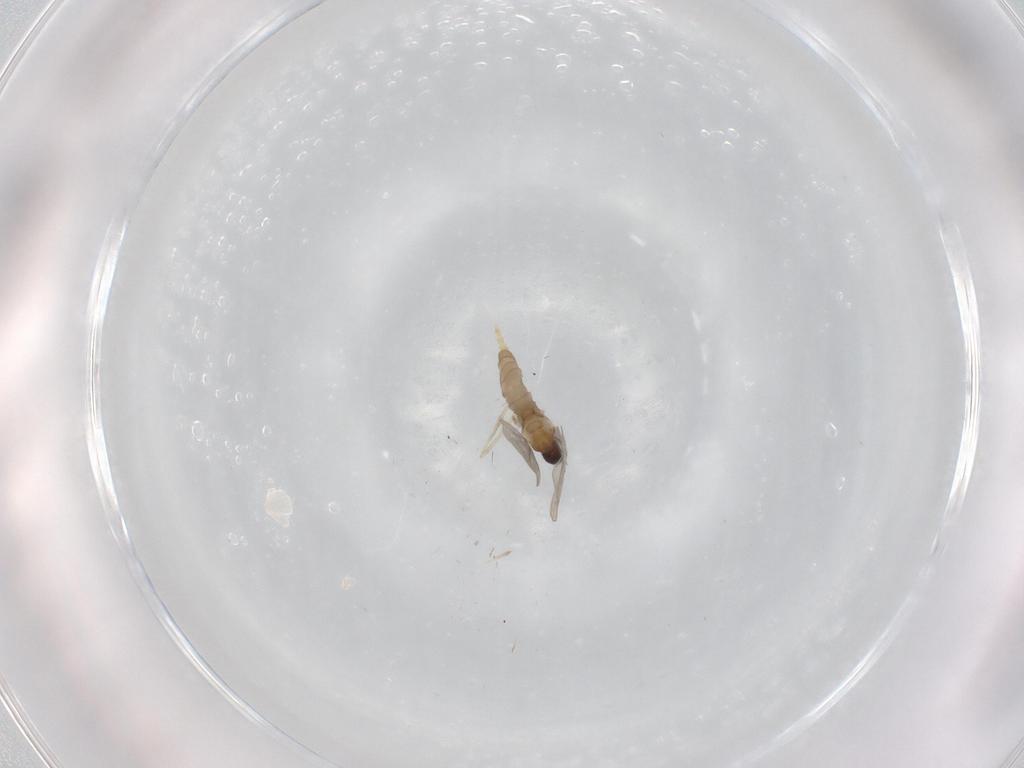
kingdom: Animalia
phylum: Arthropoda
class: Insecta
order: Diptera
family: Cecidomyiidae
